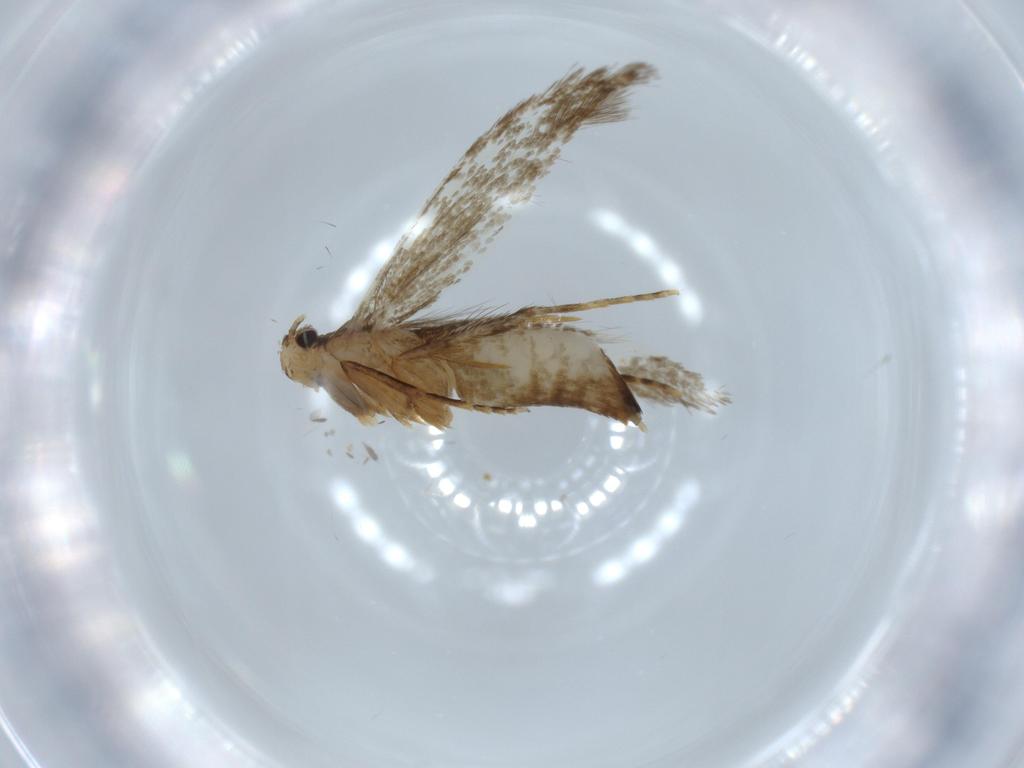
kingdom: Animalia
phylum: Arthropoda
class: Insecta
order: Lepidoptera
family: Tineidae
